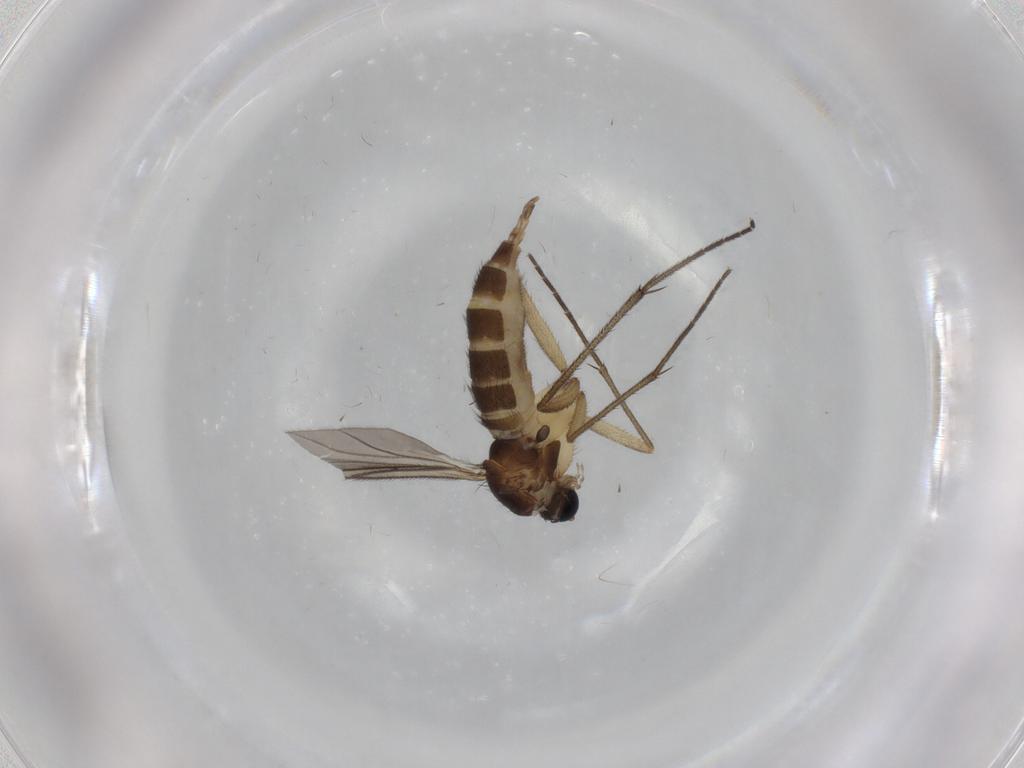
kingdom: Animalia
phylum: Arthropoda
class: Insecta
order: Diptera
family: Sciaridae
